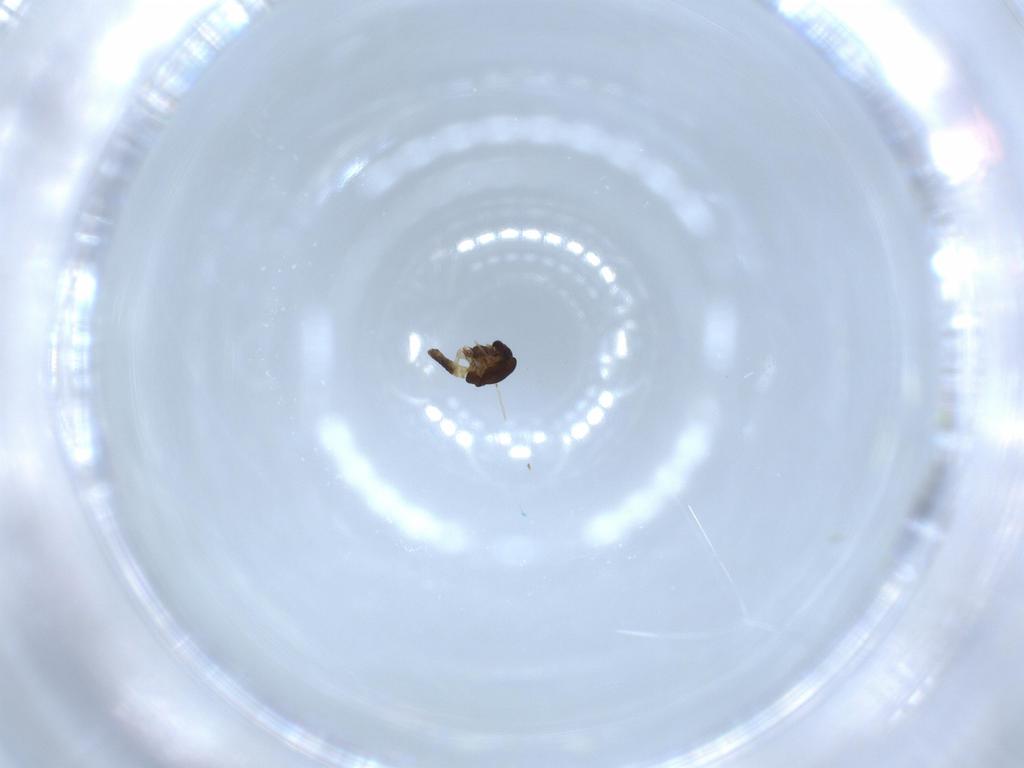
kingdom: Animalia
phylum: Arthropoda
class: Insecta
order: Diptera
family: Chironomidae
